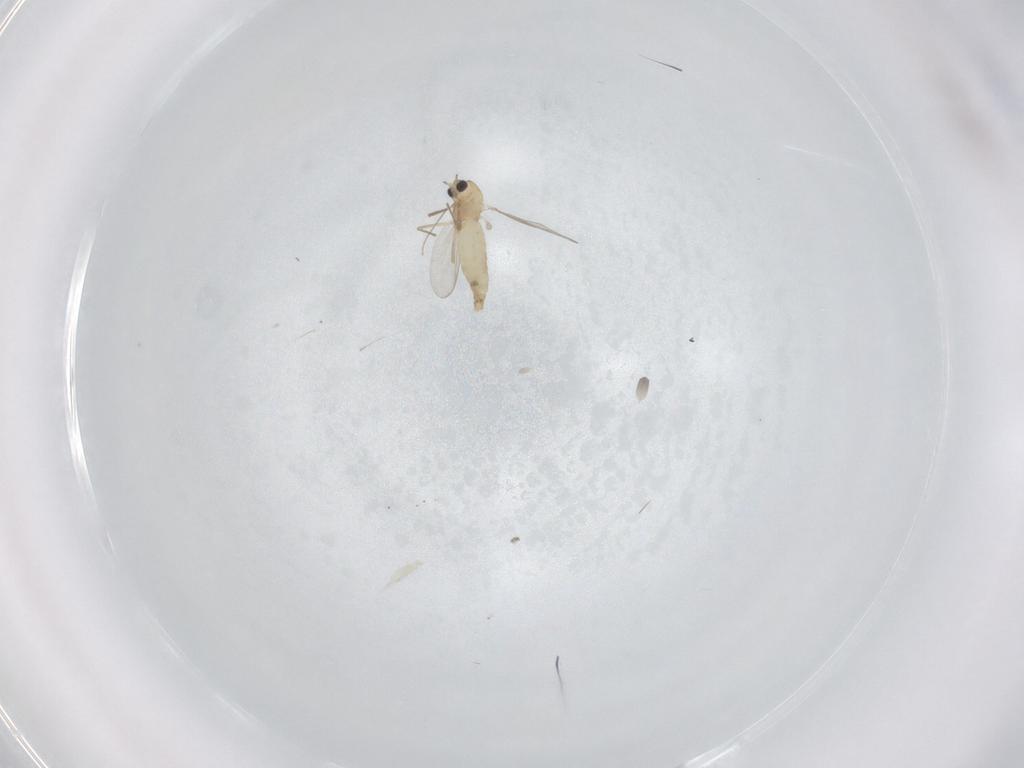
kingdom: Animalia
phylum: Arthropoda
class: Insecta
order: Diptera
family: Chironomidae
